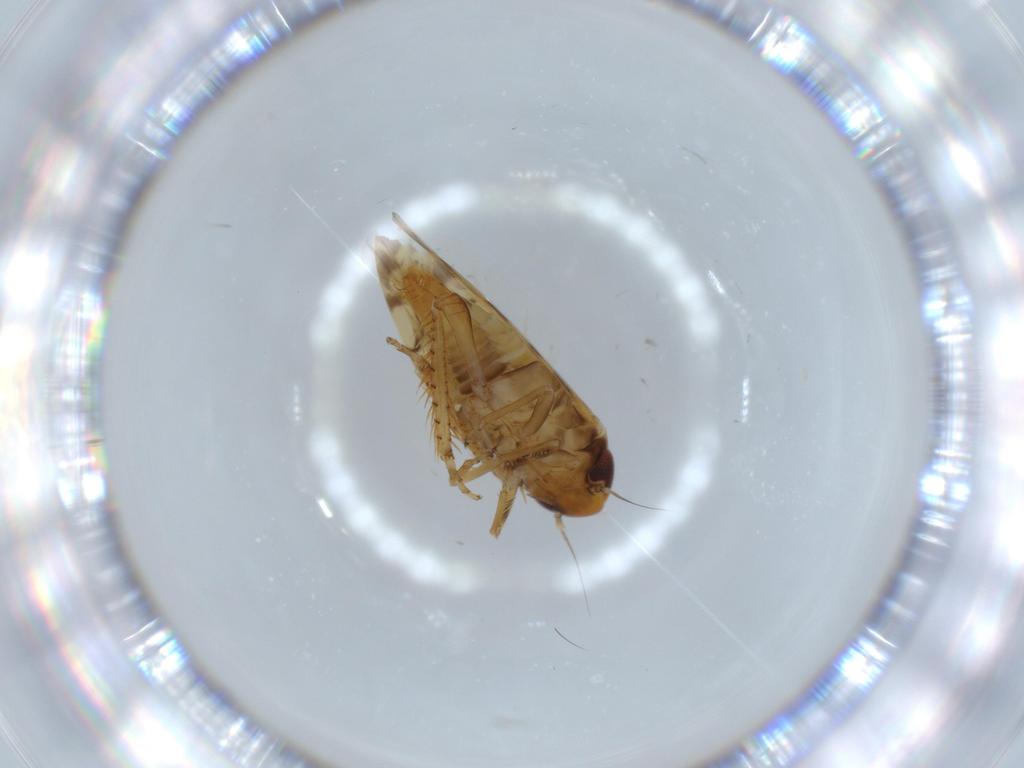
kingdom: Animalia
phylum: Arthropoda
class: Insecta
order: Hemiptera
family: Cicadellidae
